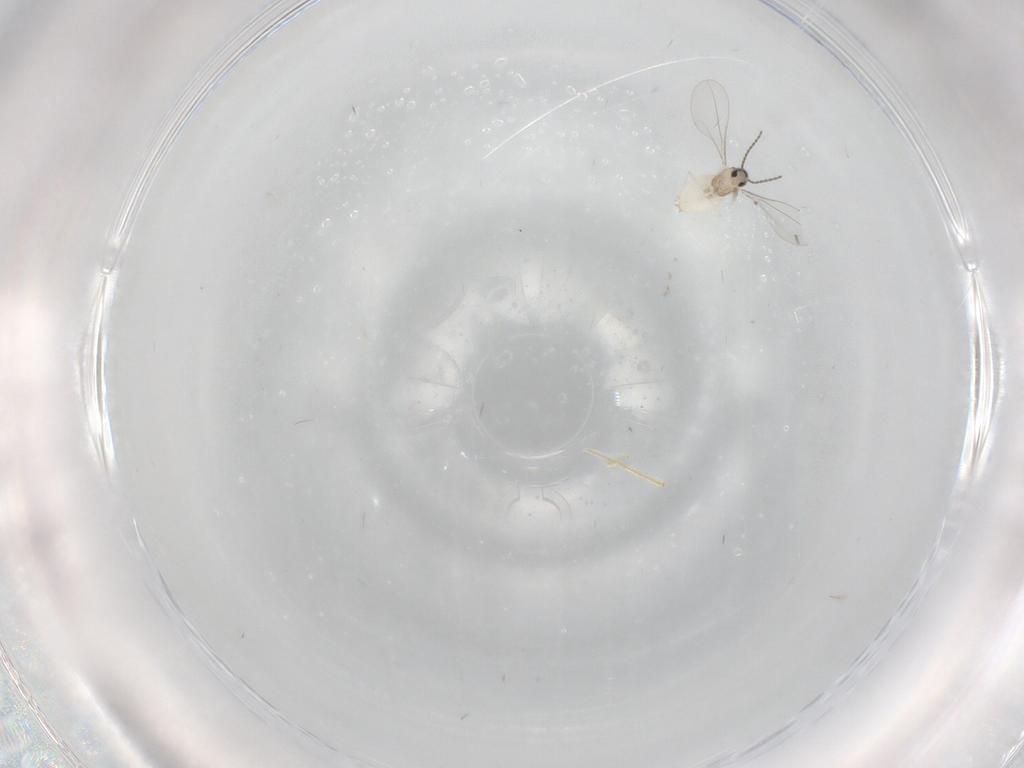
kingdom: Animalia
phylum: Arthropoda
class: Insecta
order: Diptera
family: Cecidomyiidae
